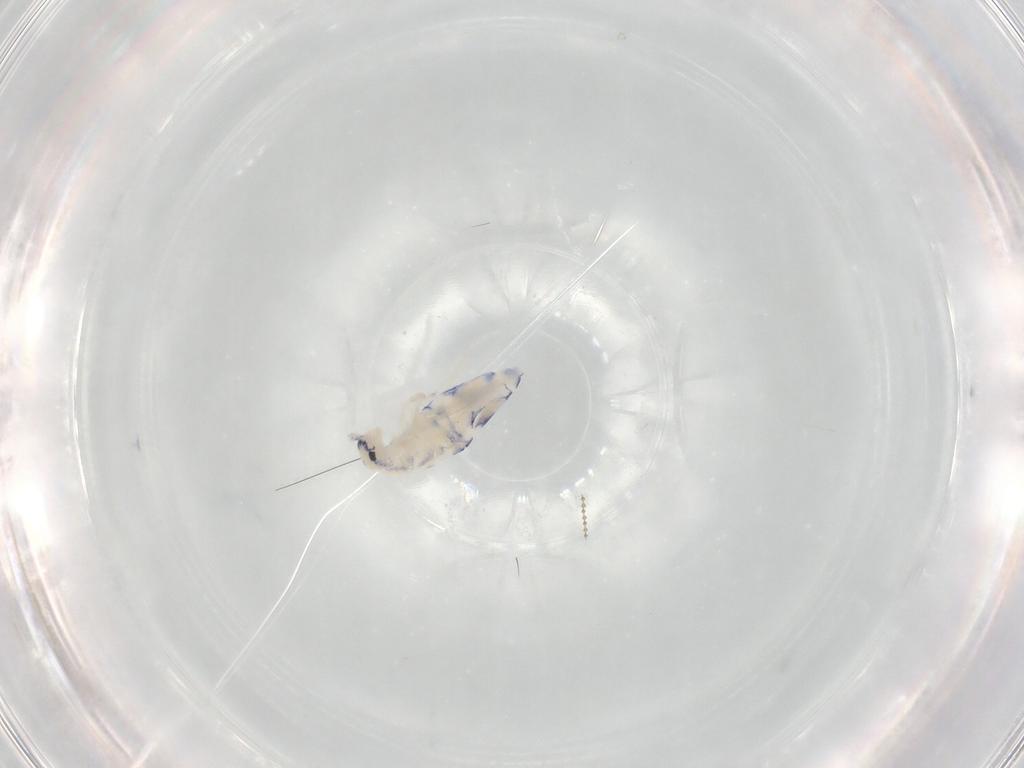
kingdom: Animalia
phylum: Arthropoda
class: Collembola
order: Entomobryomorpha
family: Entomobryidae
